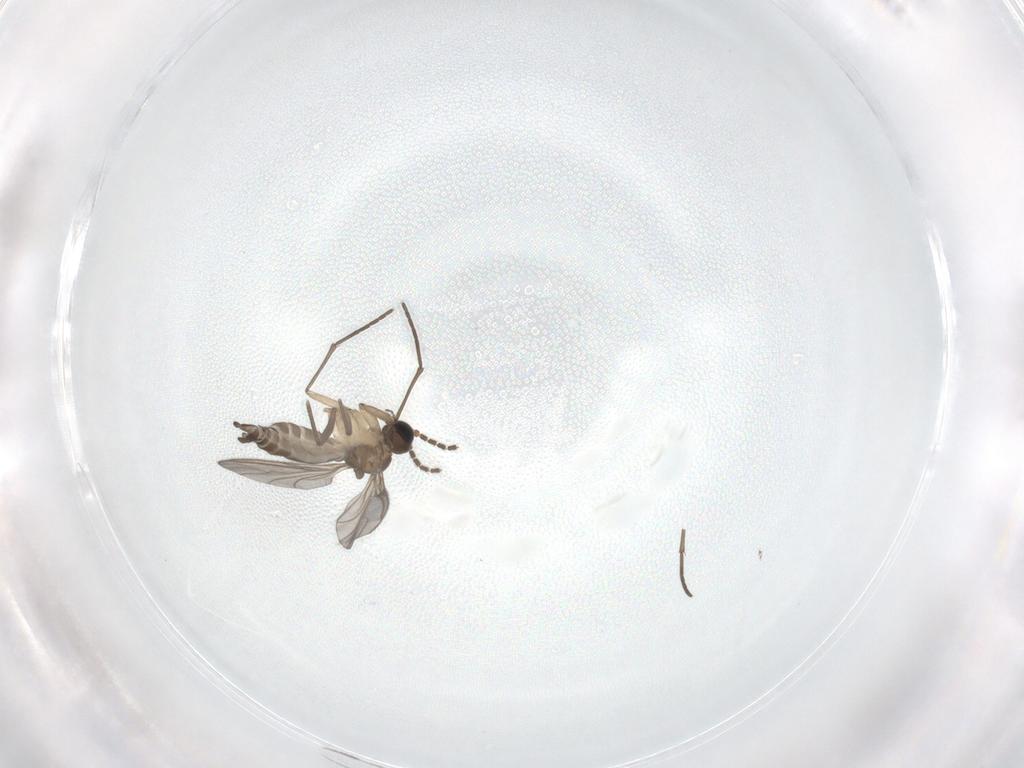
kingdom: Animalia
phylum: Arthropoda
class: Insecta
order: Diptera
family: Sciaridae
